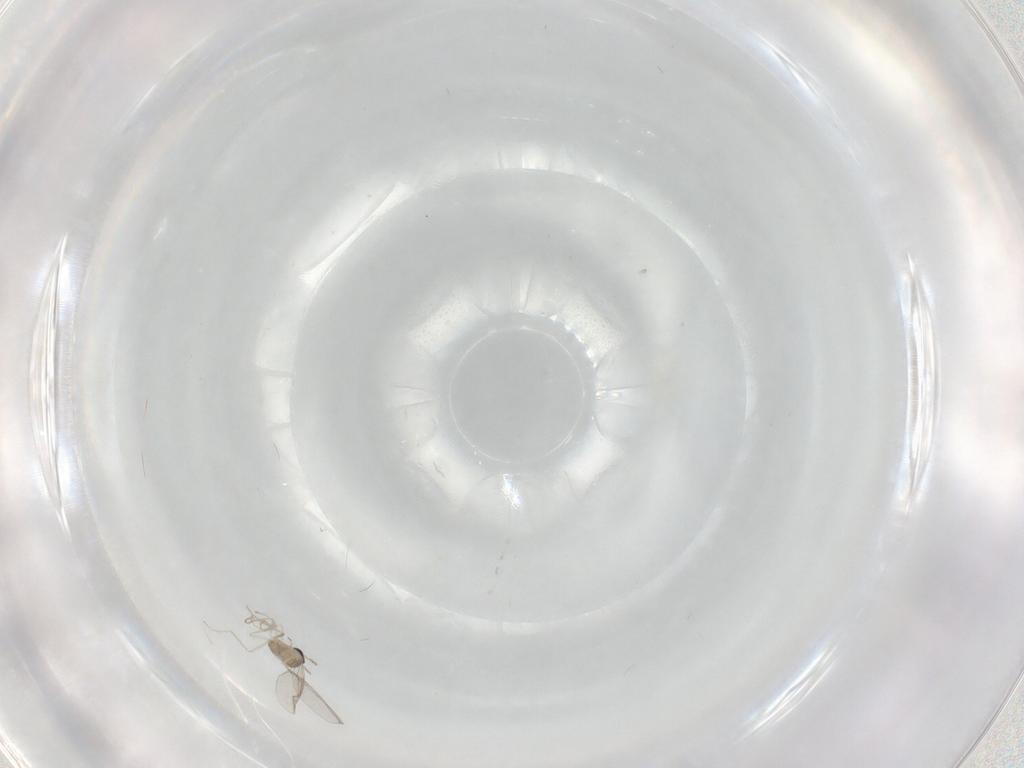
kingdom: Animalia
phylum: Arthropoda
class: Insecta
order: Diptera
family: Cecidomyiidae
